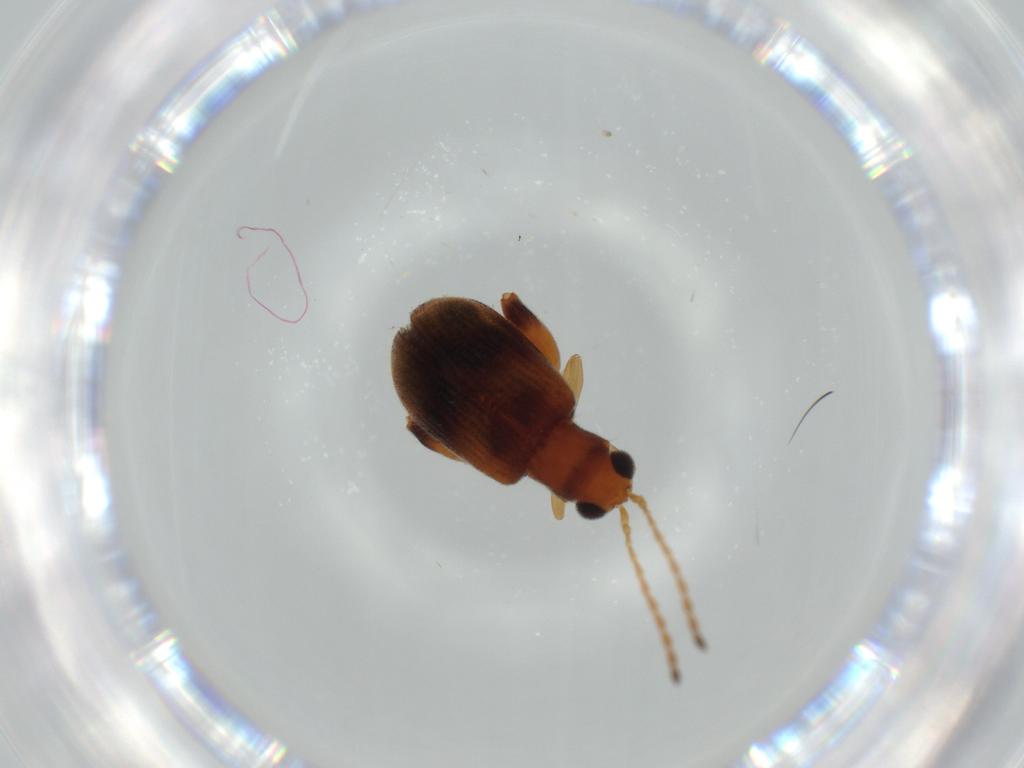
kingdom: Animalia
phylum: Arthropoda
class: Insecta
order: Coleoptera
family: Chrysomelidae
